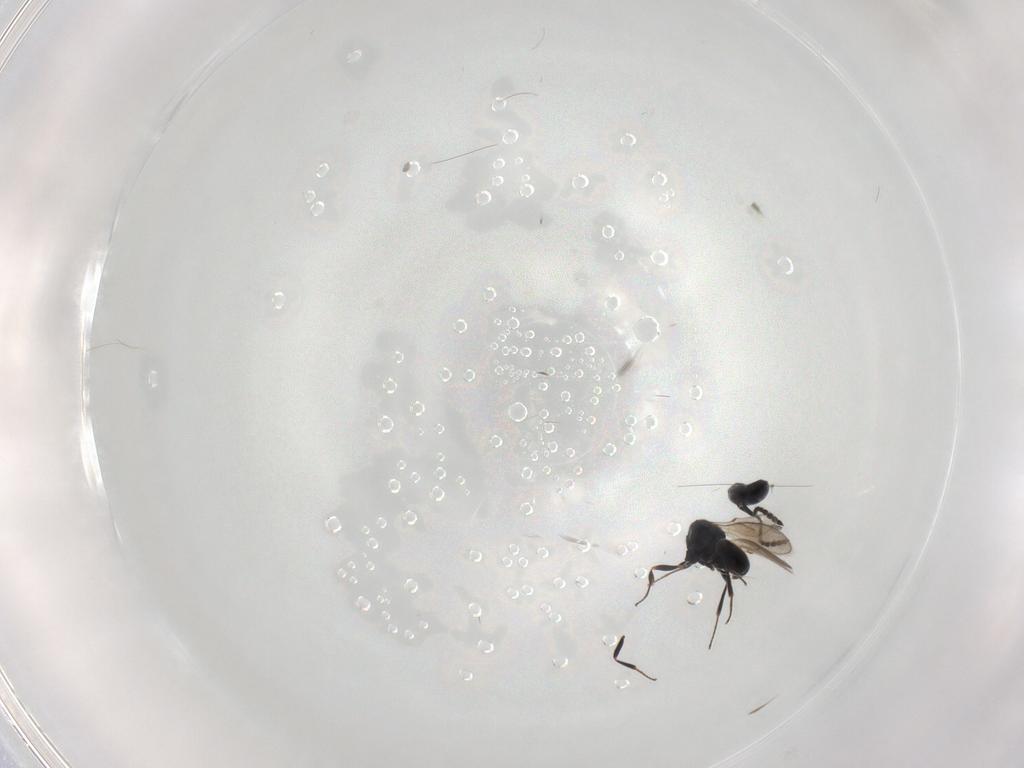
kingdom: Animalia
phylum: Arthropoda
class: Insecta
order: Hymenoptera
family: Scelionidae
